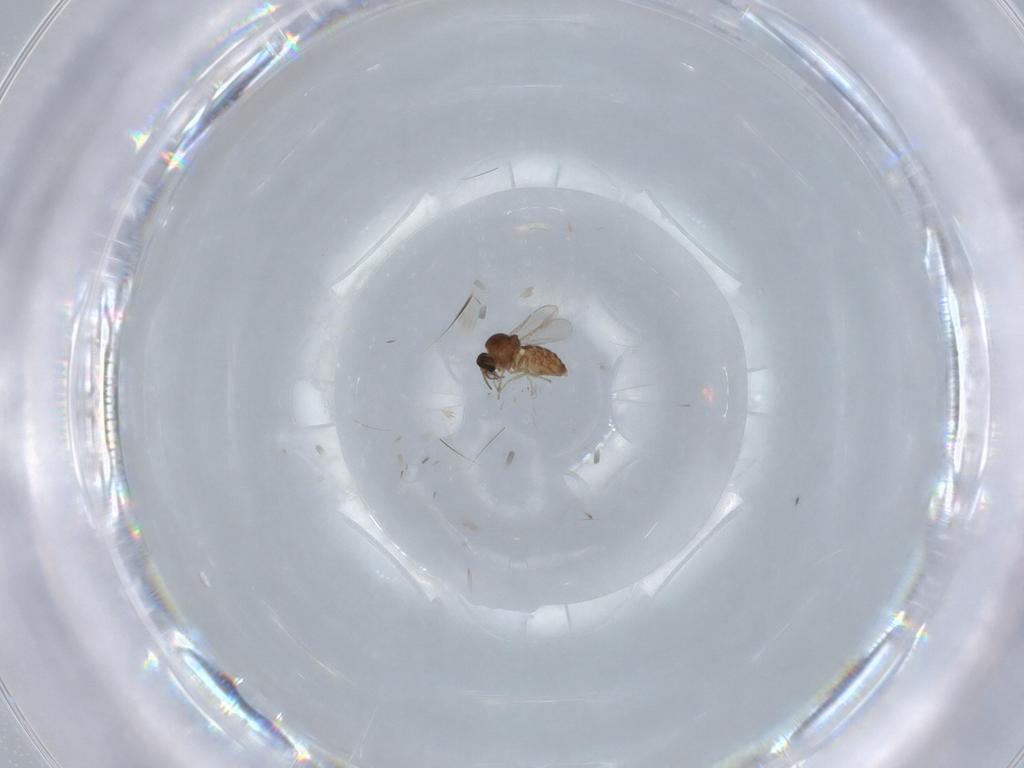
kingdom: Animalia
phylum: Arthropoda
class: Insecta
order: Diptera
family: Ceratopogonidae
